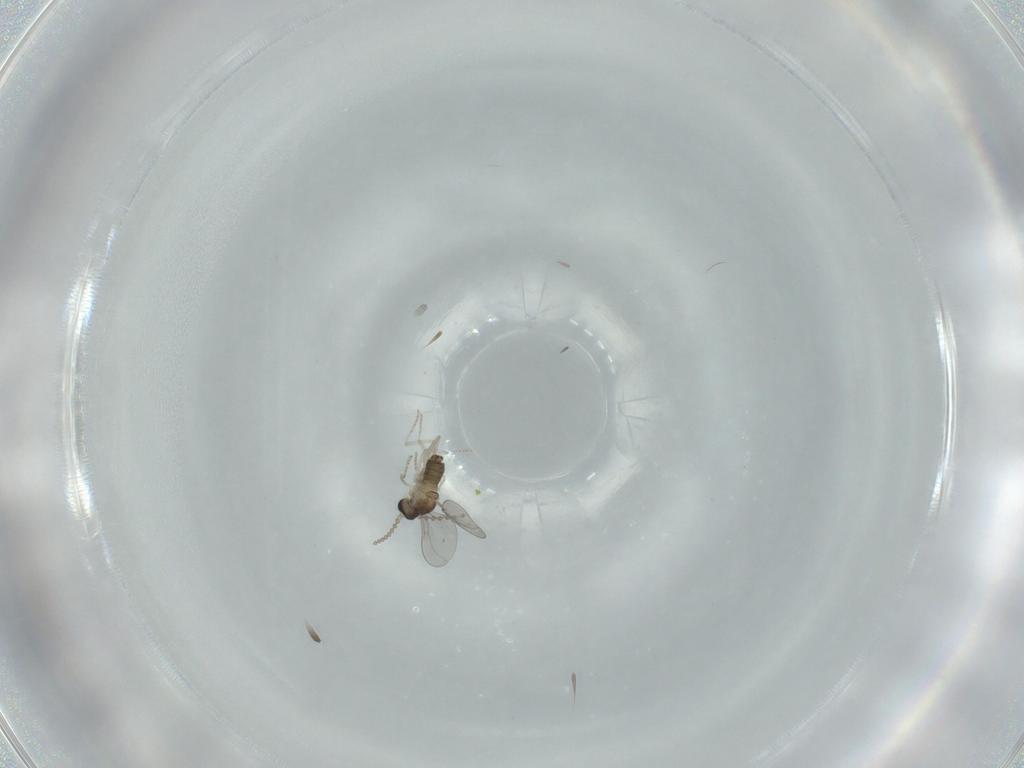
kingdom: Animalia
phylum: Arthropoda
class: Insecta
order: Diptera
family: Cecidomyiidae
